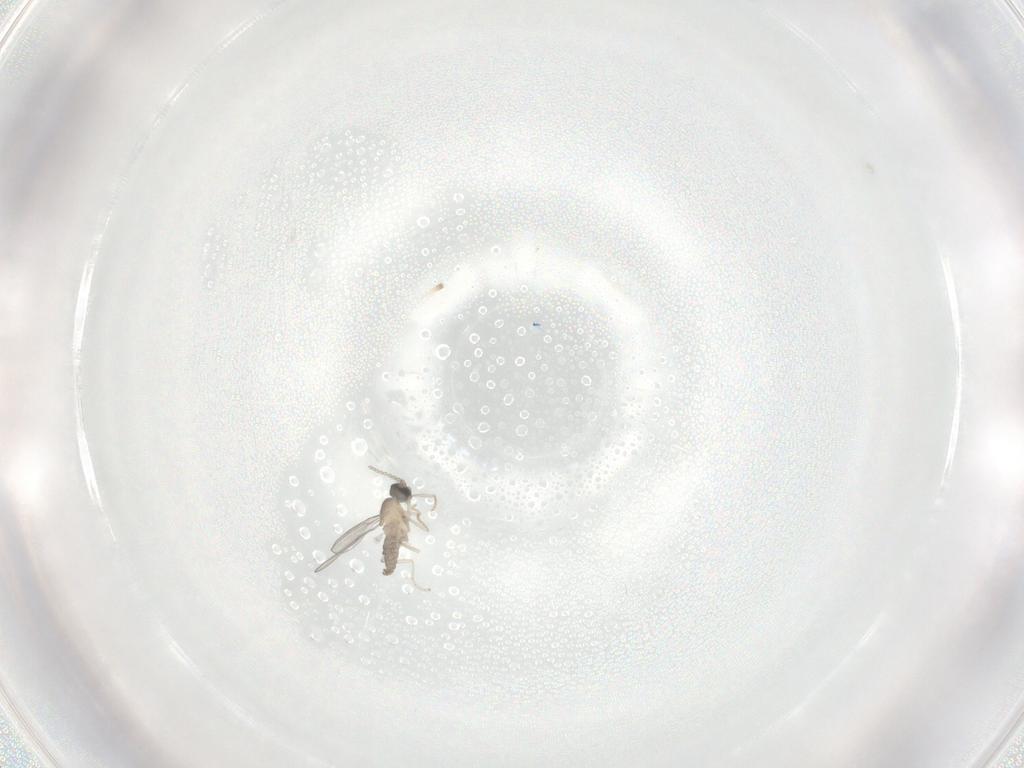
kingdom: Animalia
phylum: Arthropoda
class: Insecta
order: Diptera
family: Cecidomyiidae
